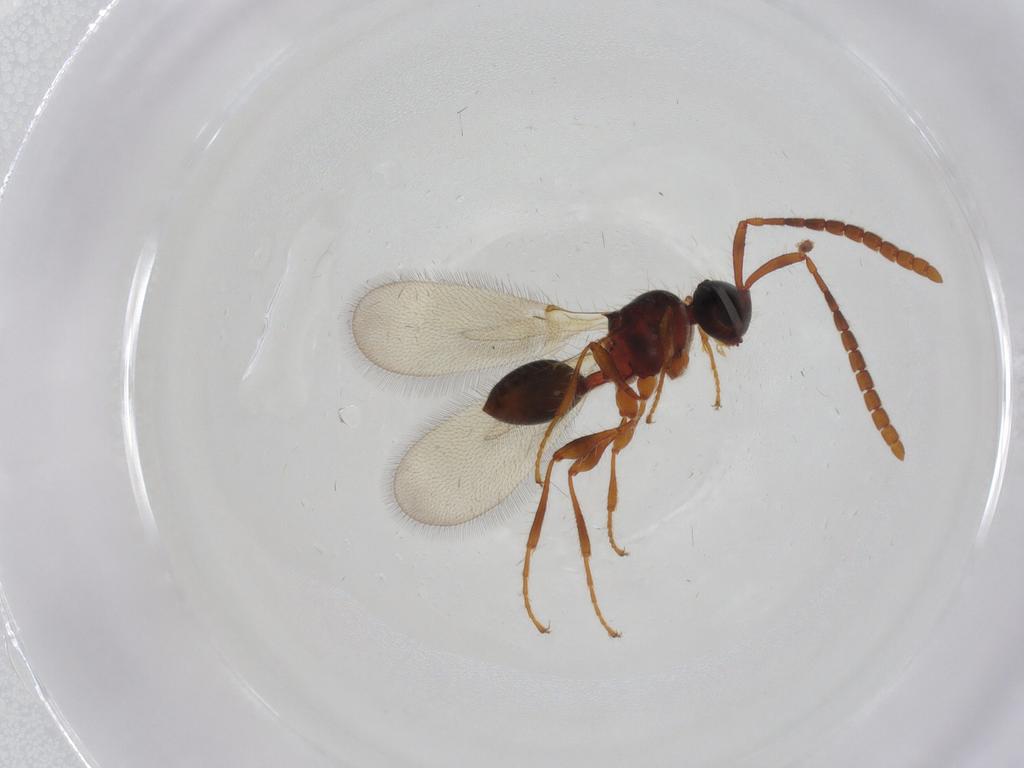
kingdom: Animalia
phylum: Arthropoda
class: Insecta
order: Hymenoptera
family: Diapriidae
